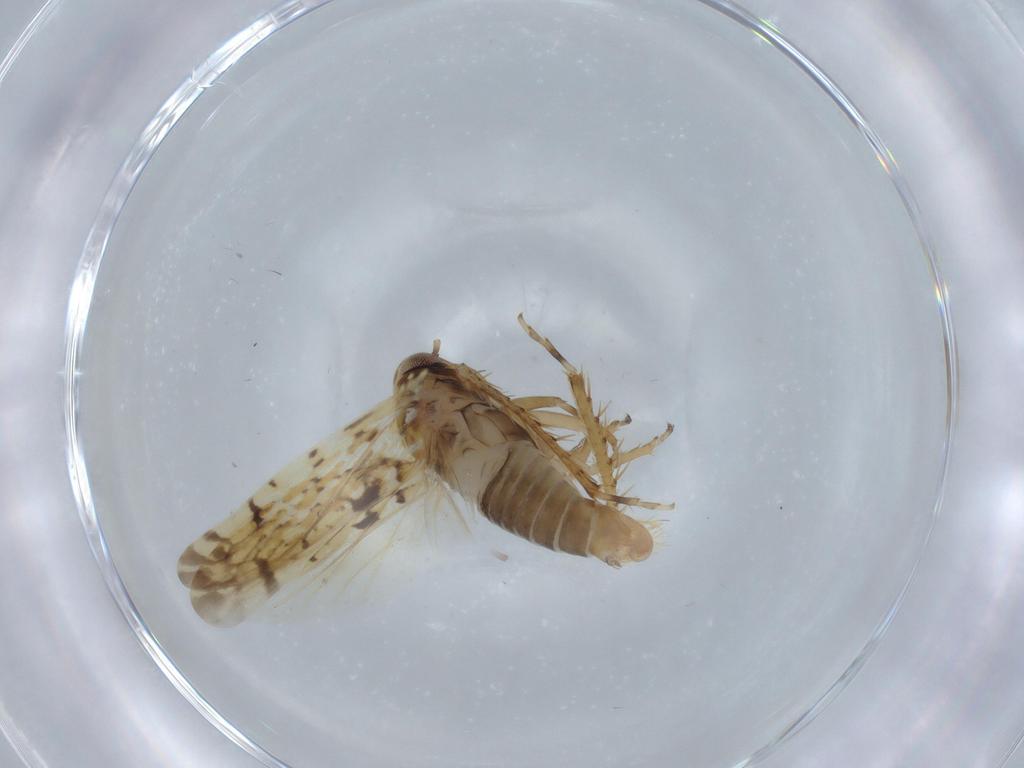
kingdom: Animalia
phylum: Arthropoda
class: Insecta
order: Hemiptera
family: Cicadellidae
